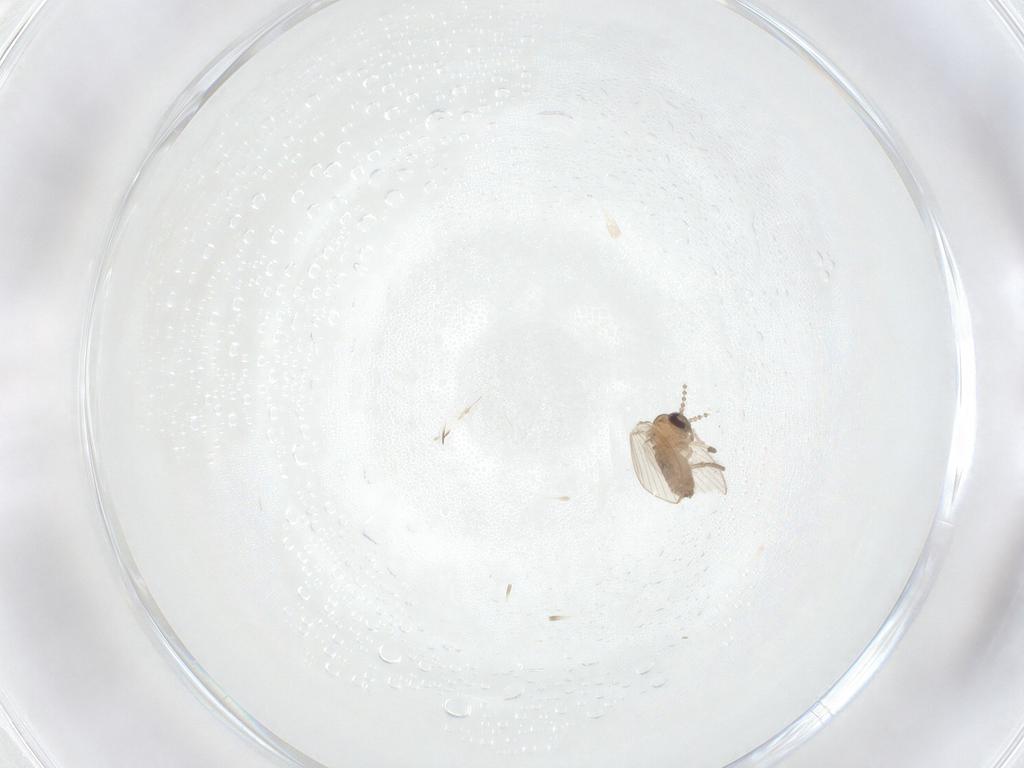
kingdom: Animalia
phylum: Arthropoda
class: Insecta
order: Diptera
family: Psychodidae
